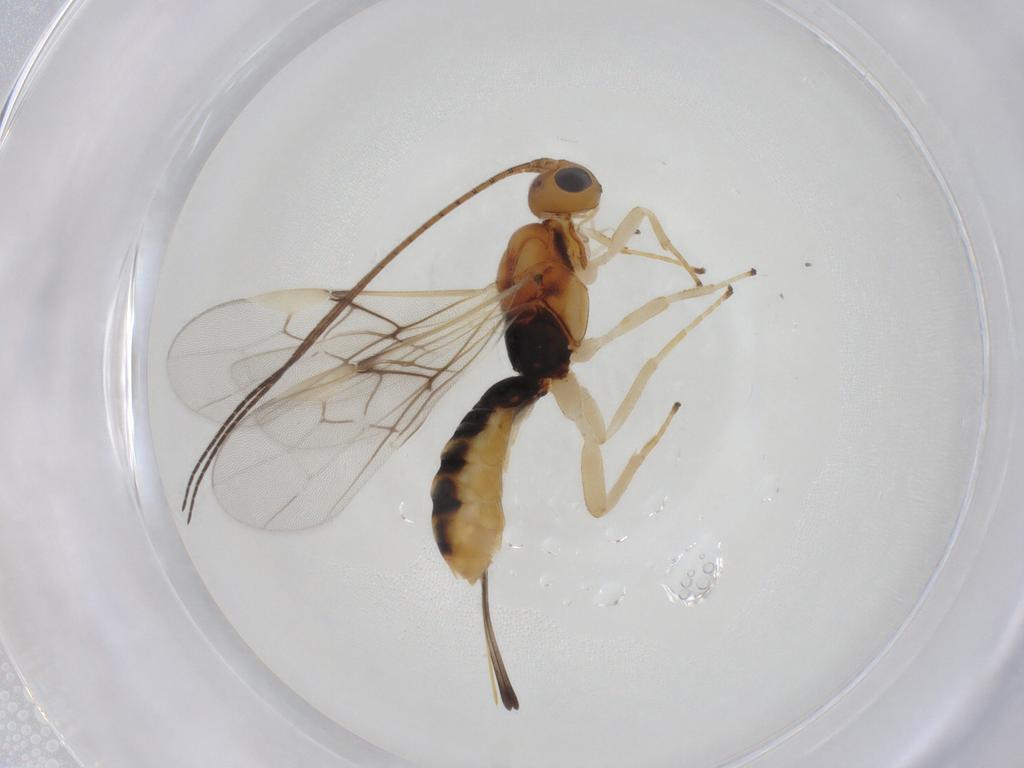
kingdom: Animalia
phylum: Arthropoda
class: Insecta
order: Hymenoptera
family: Braconidae
